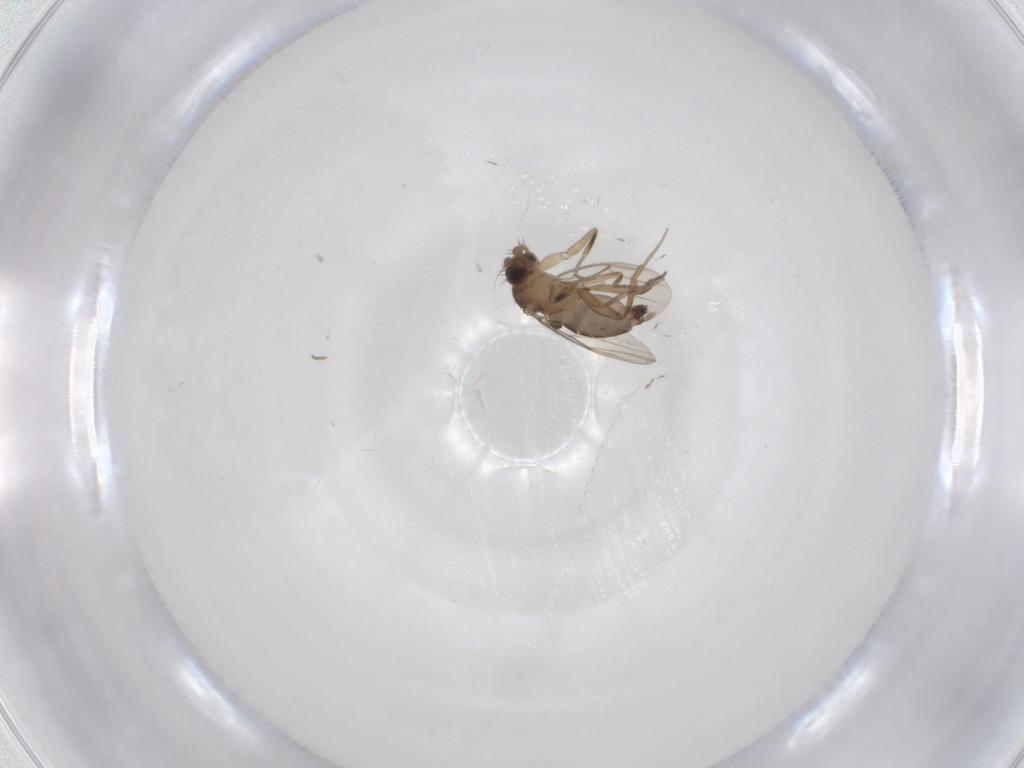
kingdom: Animalia
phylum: Arthropoda
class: Insecta
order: Diptera
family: Phoridae
